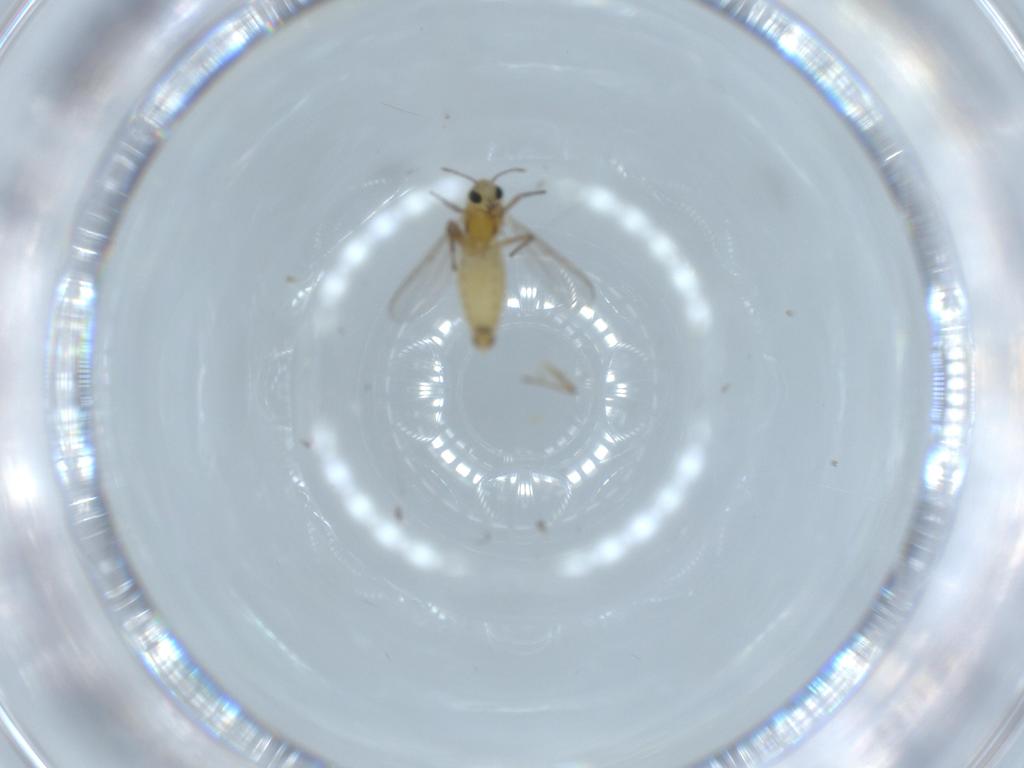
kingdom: Animalia
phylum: Arthropoda
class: Insecta
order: Diptera
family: Chironomidae
